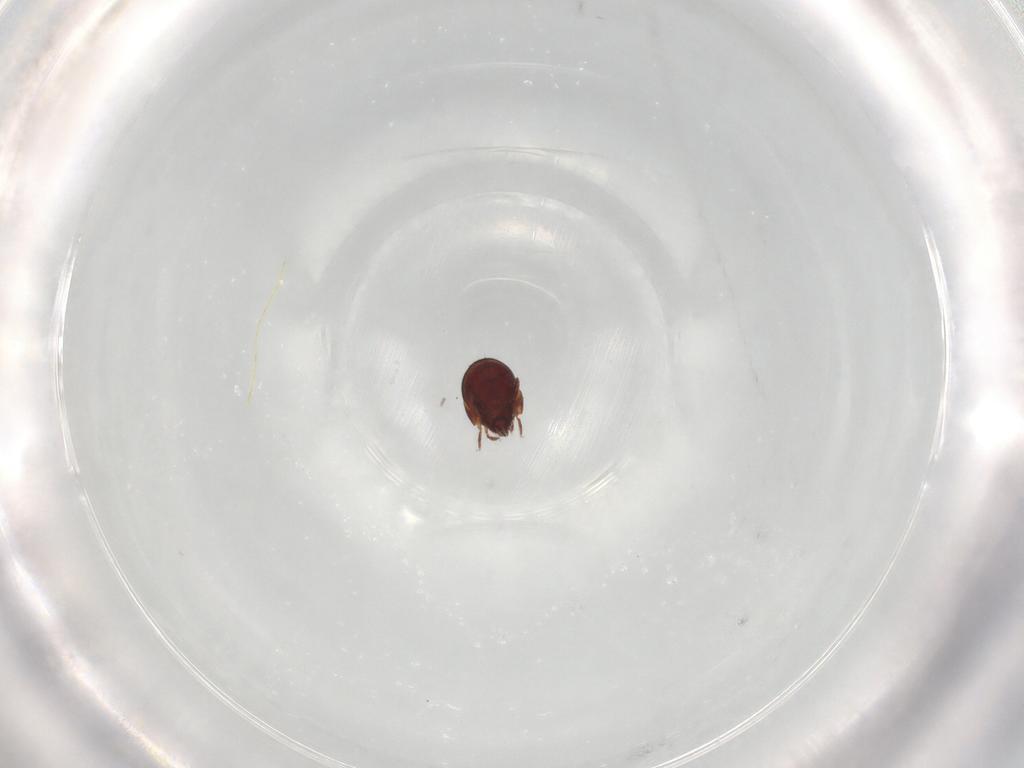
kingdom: Animalia
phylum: Arthropoda
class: Arachnida
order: Sarcoptiformes
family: Humerobatidae
